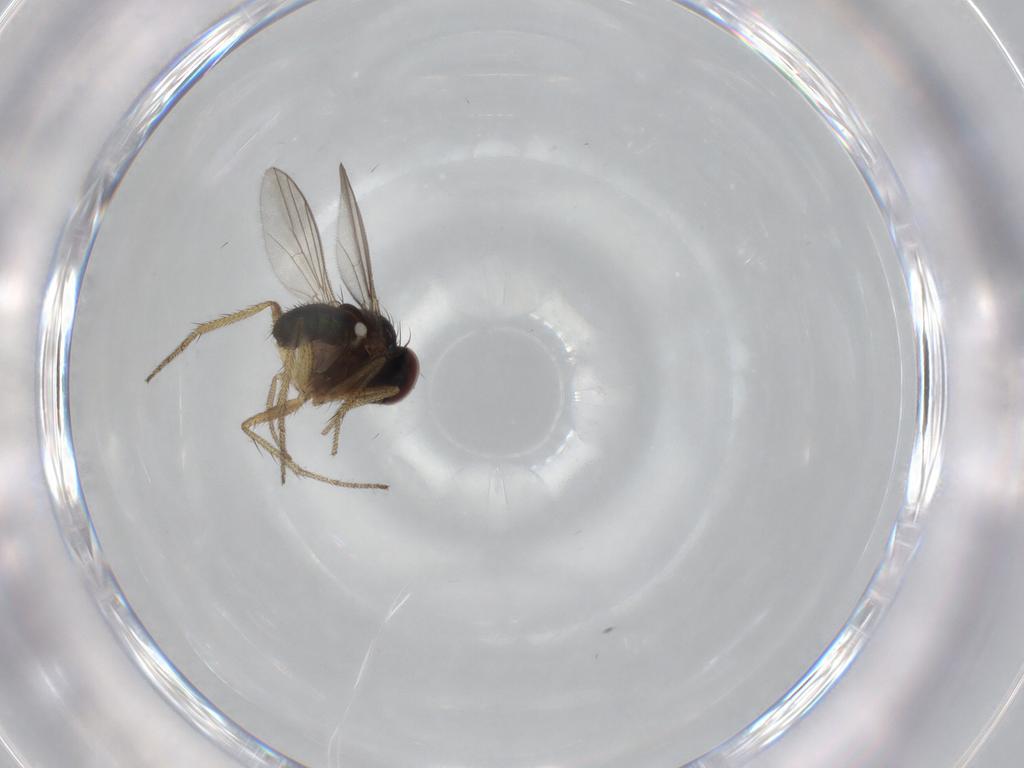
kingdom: Animalia
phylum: Arthropoda
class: Insecta
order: Diptera
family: Dolichopodidae
